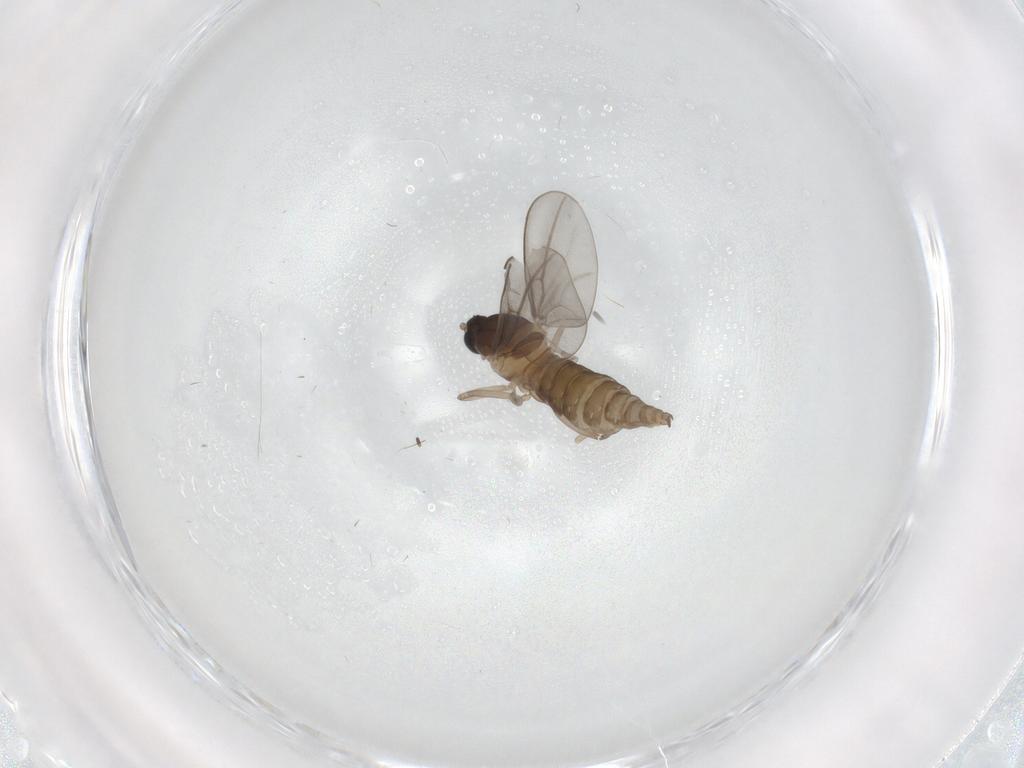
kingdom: Animalia
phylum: Arthropoda
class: Insecta
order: Diptera
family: Cecidomyiidae
